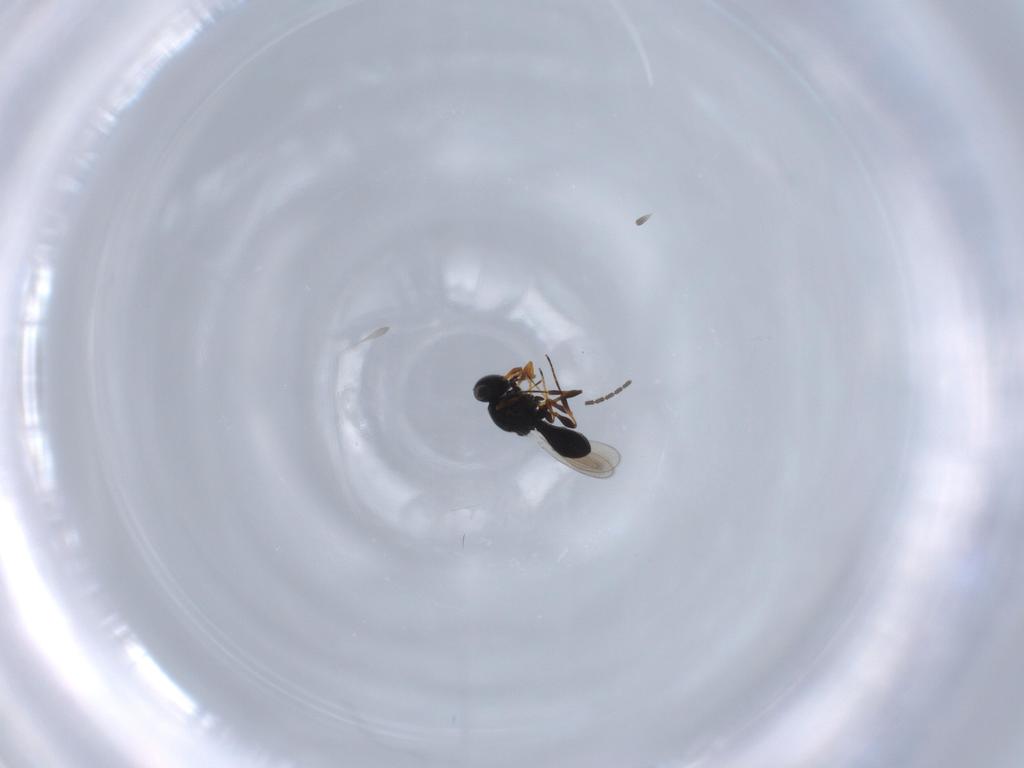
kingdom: Animalia
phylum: Arthropoda
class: Insecta
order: Hymenoptera
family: Platygastridae
